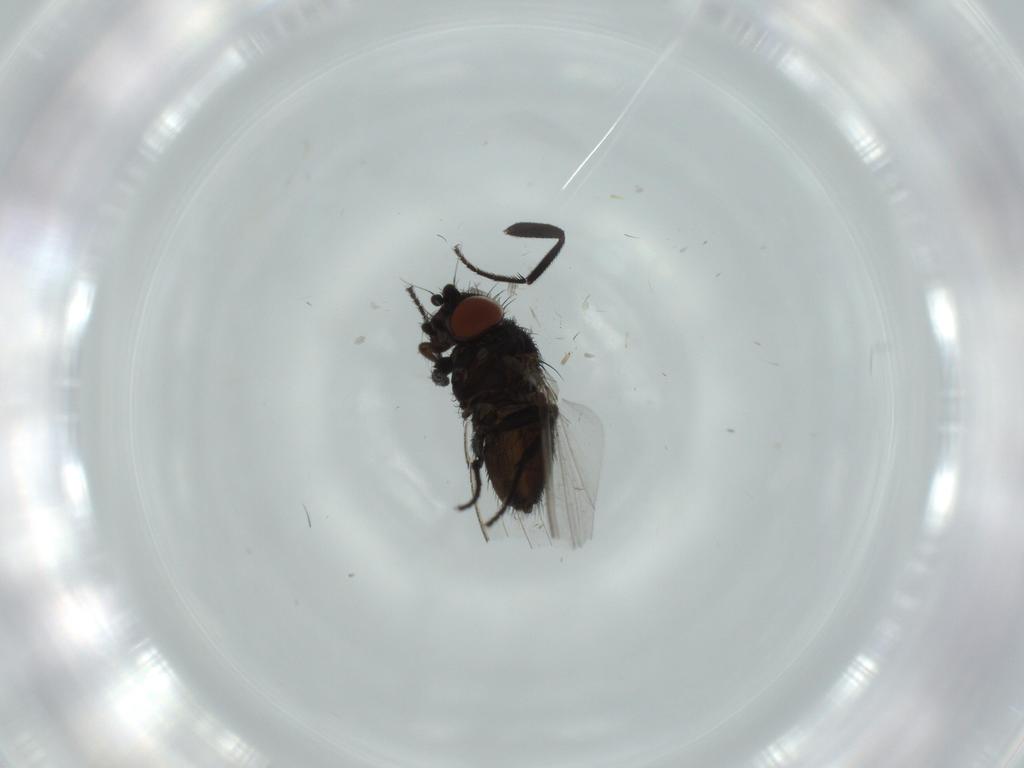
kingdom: Animalia
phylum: Arthropoda
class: Insecta
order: Diptera
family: Milichiidae
